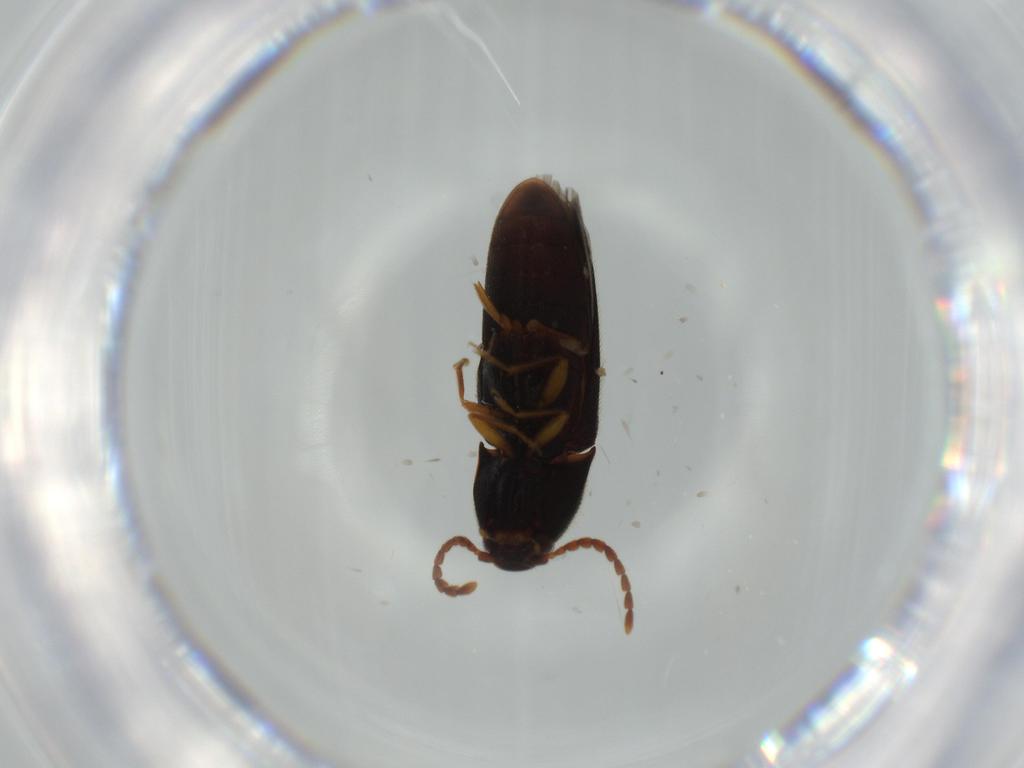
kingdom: Animalia
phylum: Arthropoda
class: Insecta
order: Coleoptera
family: Elateridae
